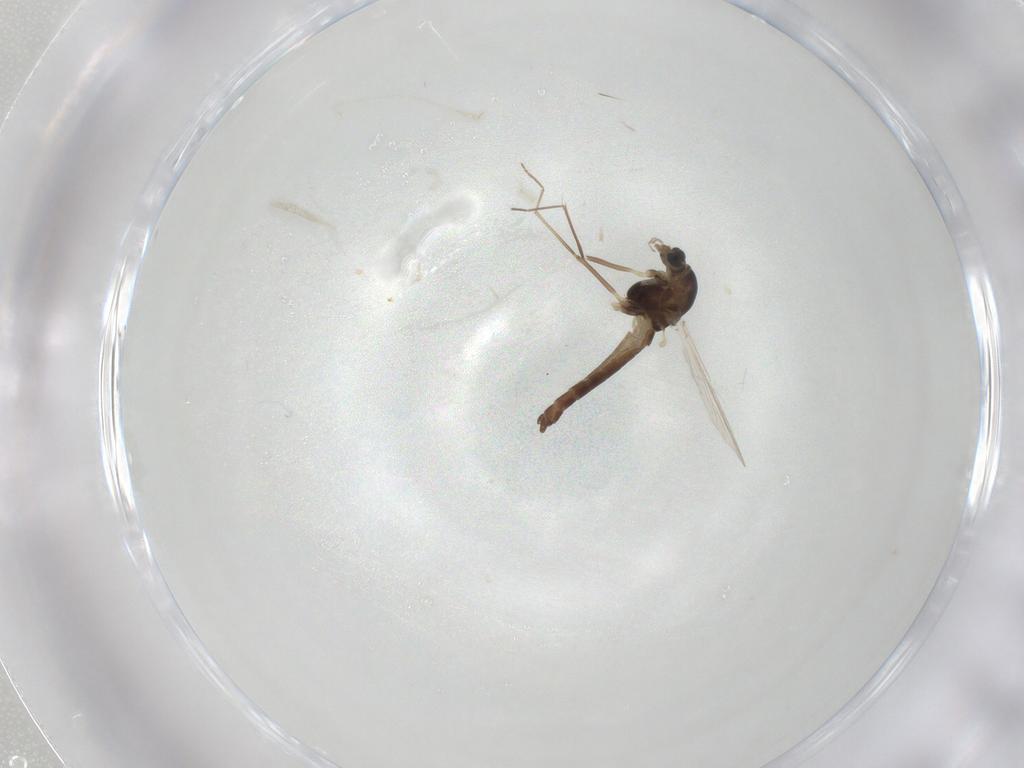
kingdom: Animalia
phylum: Arthropoda
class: Insecta
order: Diptera
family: Chironomidae
